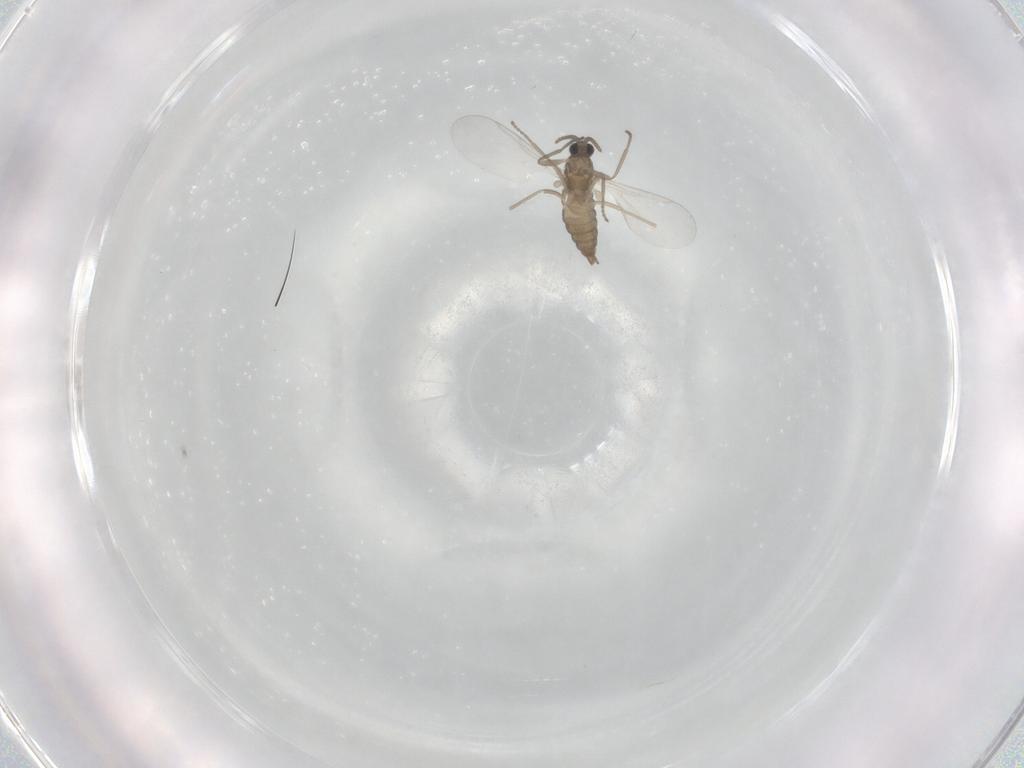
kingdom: Animalia
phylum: Arthropoda
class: Insecta
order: Diptera
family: Cecidomyiidae
